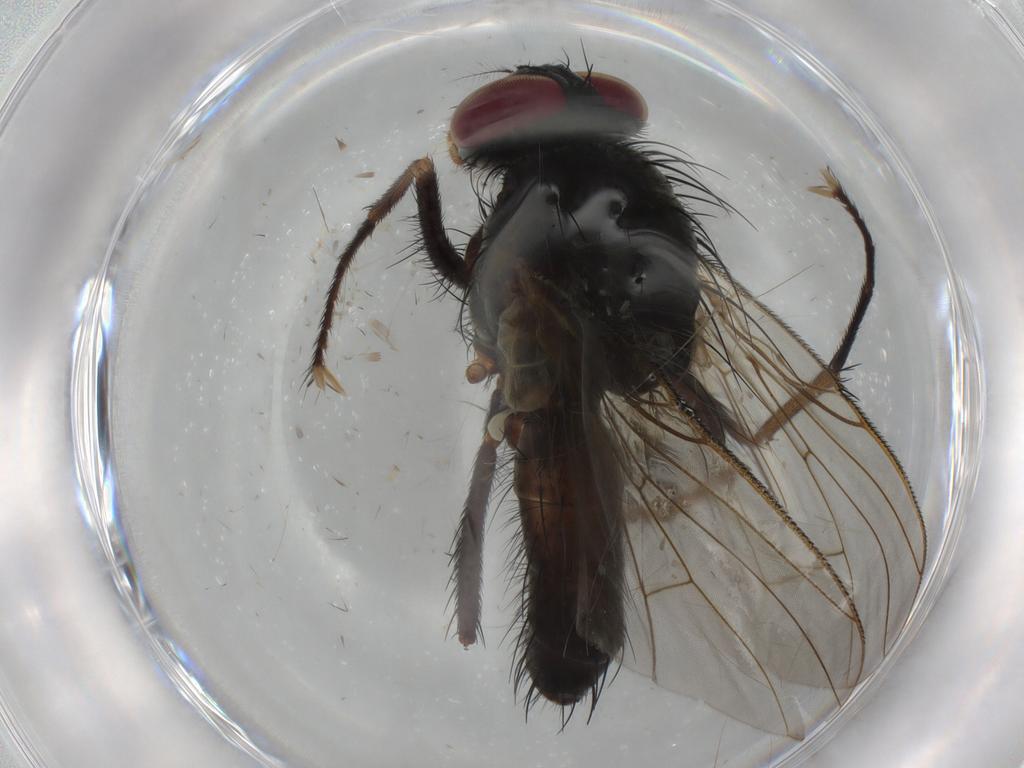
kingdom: Animalia
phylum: Arthropoda
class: Insecta
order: Diptera
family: Muscidae
